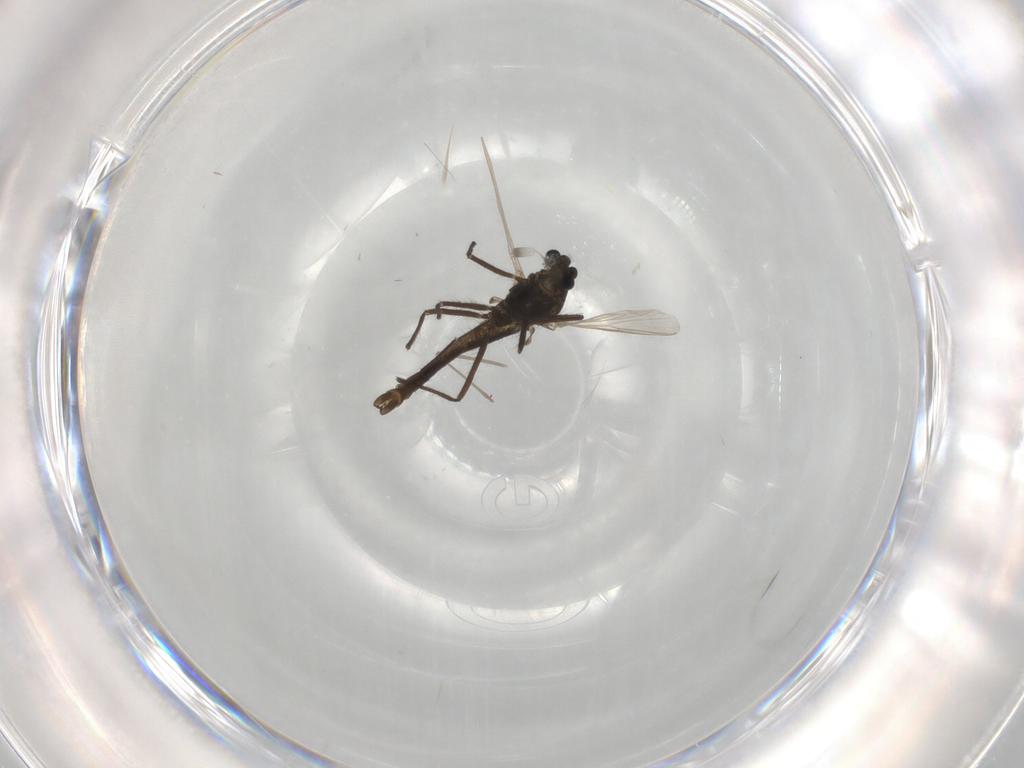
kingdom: Animalia
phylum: Arthropoda
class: Insecta
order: Diptera
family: Chironomidae
